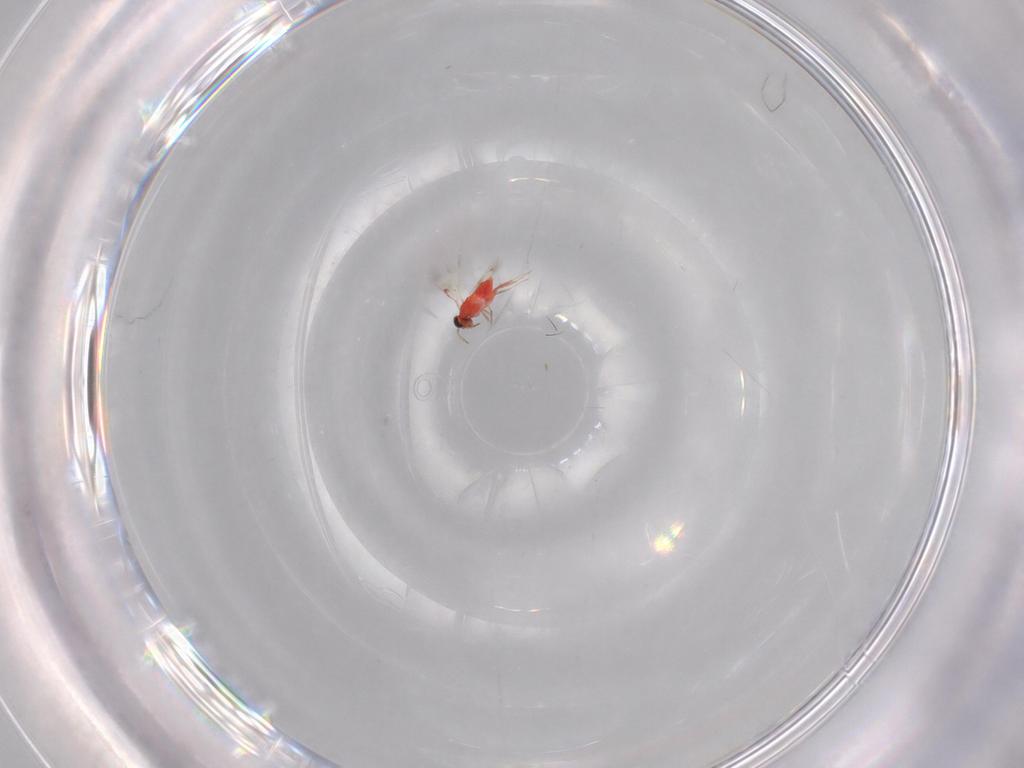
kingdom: Animalia
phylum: Arthropoda
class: Insecta
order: Hymenoptera
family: Trichogrammatidae
